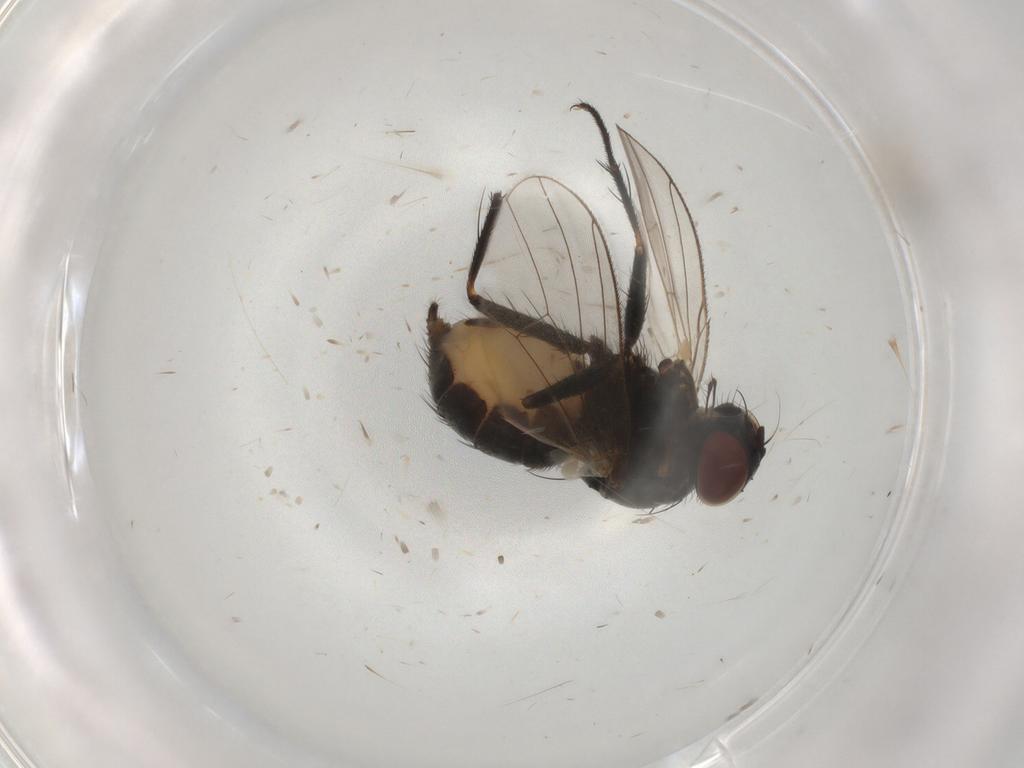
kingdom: Animalia
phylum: Arthropoda
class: Insecta
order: Diptera
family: Muscidae
